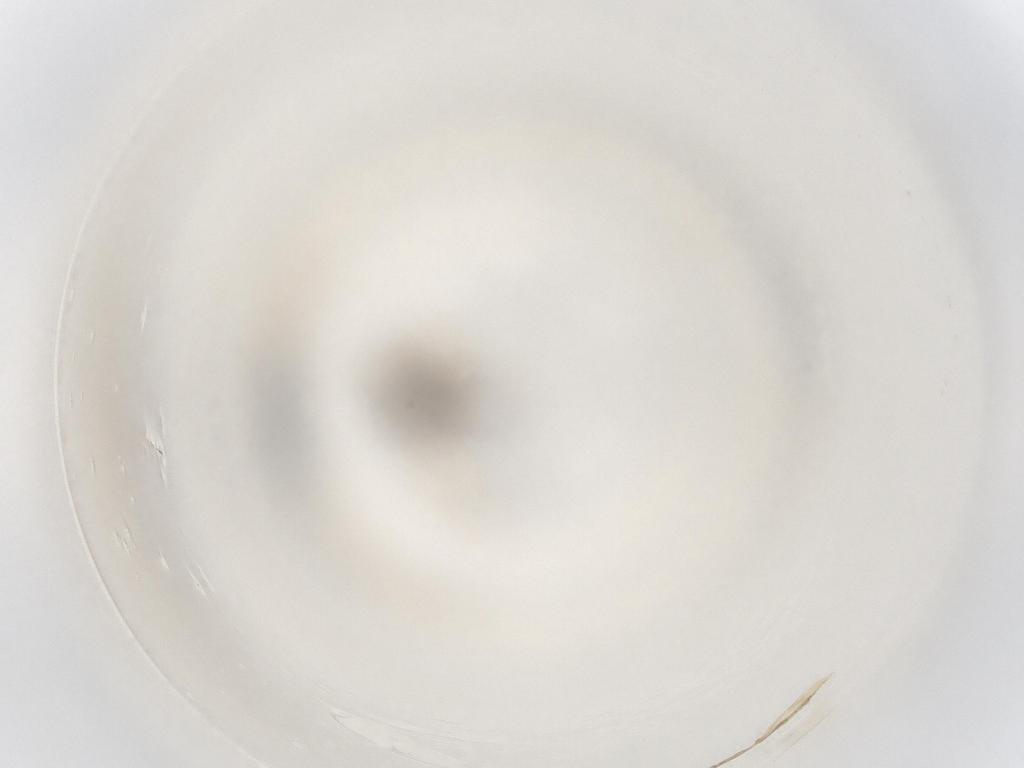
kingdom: Animalia
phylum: Arthropoda
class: Insecta
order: Diptera
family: Ceratopogonidae
